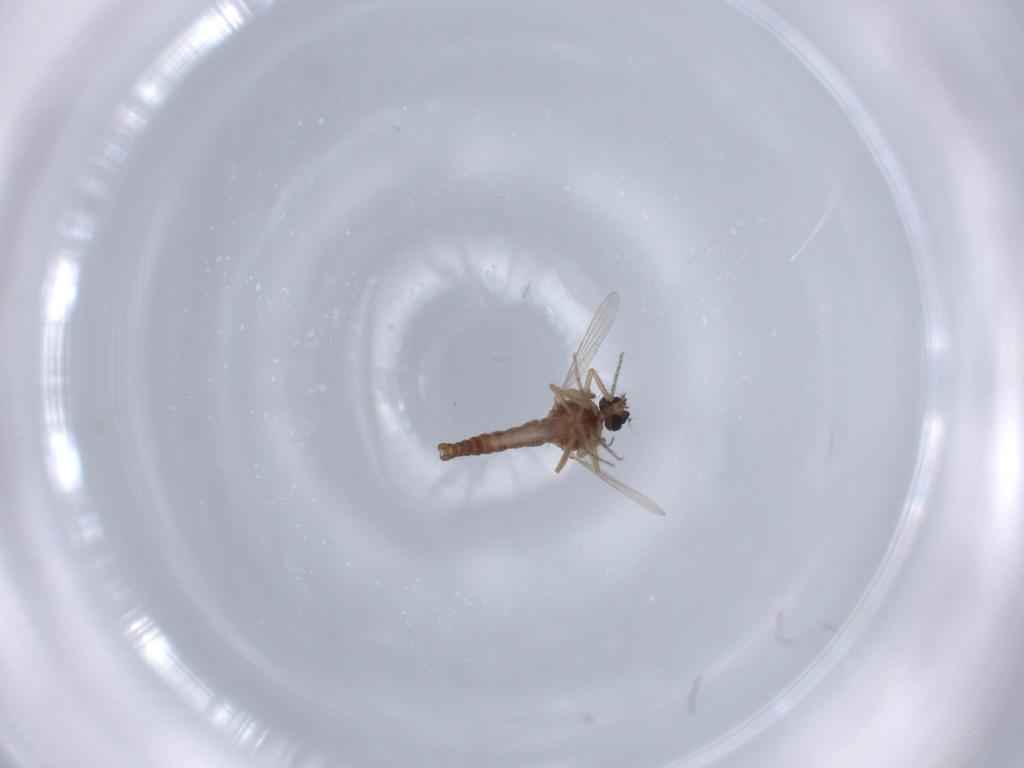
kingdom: Animalia
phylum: Arthropoda
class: Insecta
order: Diptera
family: Ceratopogonidae
